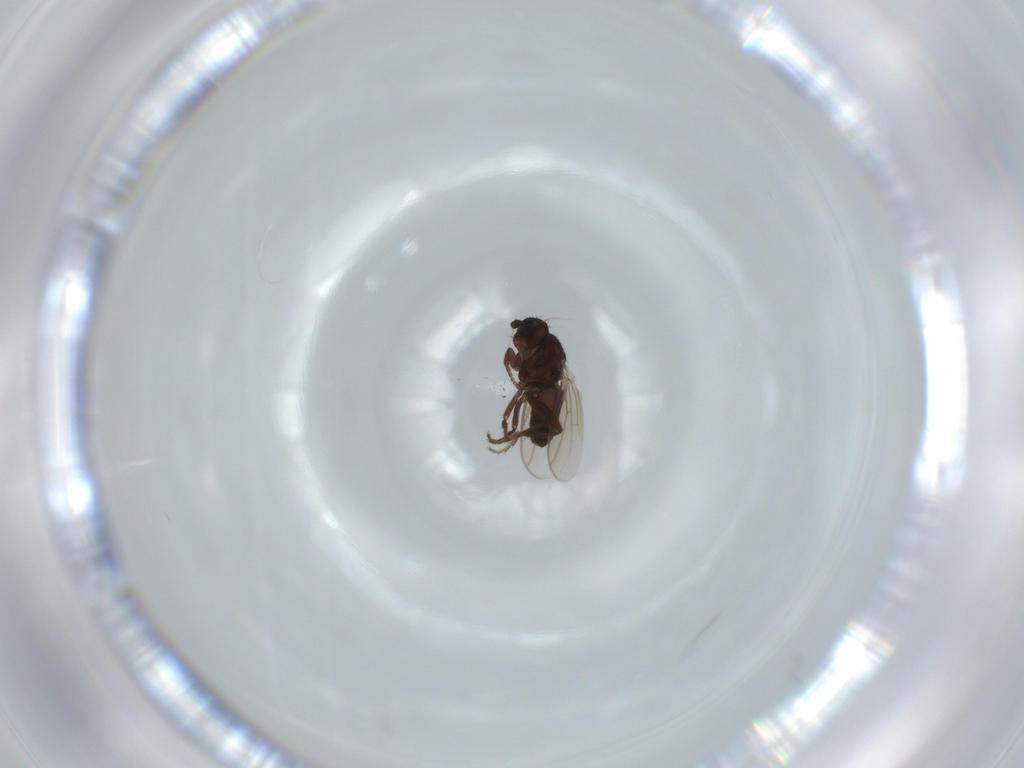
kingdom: Animalia
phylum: Arthropoda
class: Insecta
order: Diptera
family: Sphaeroceridae
